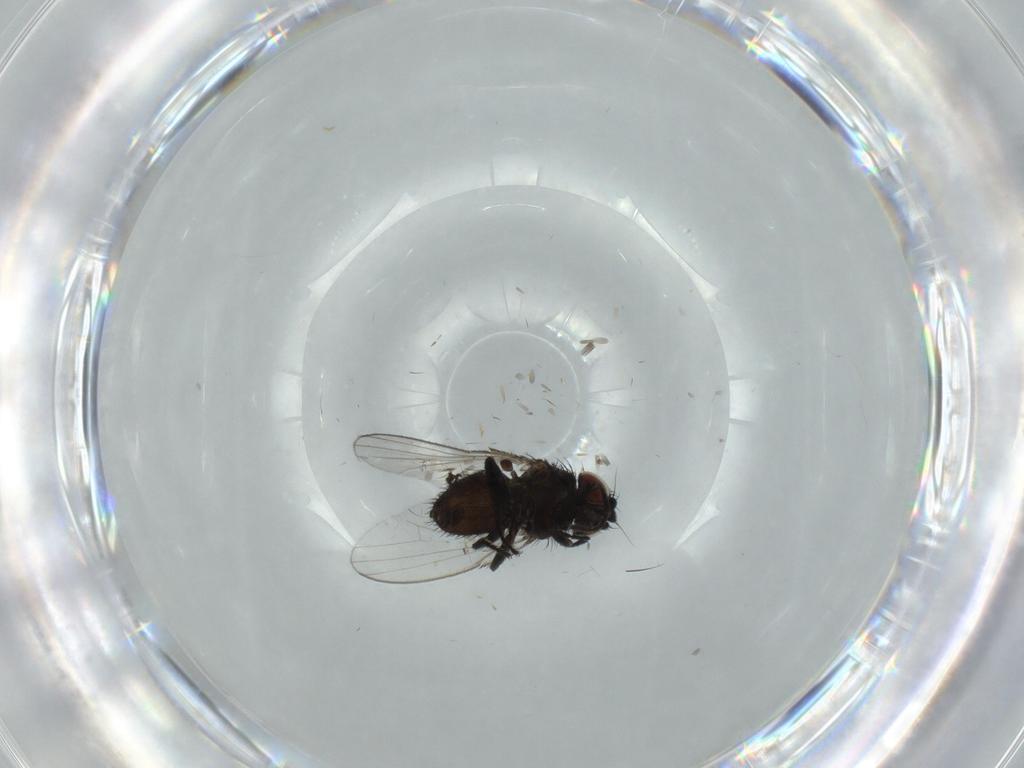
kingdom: Animalia
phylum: Arthropoda
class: Insecta
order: Diptera
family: Milichiidae
